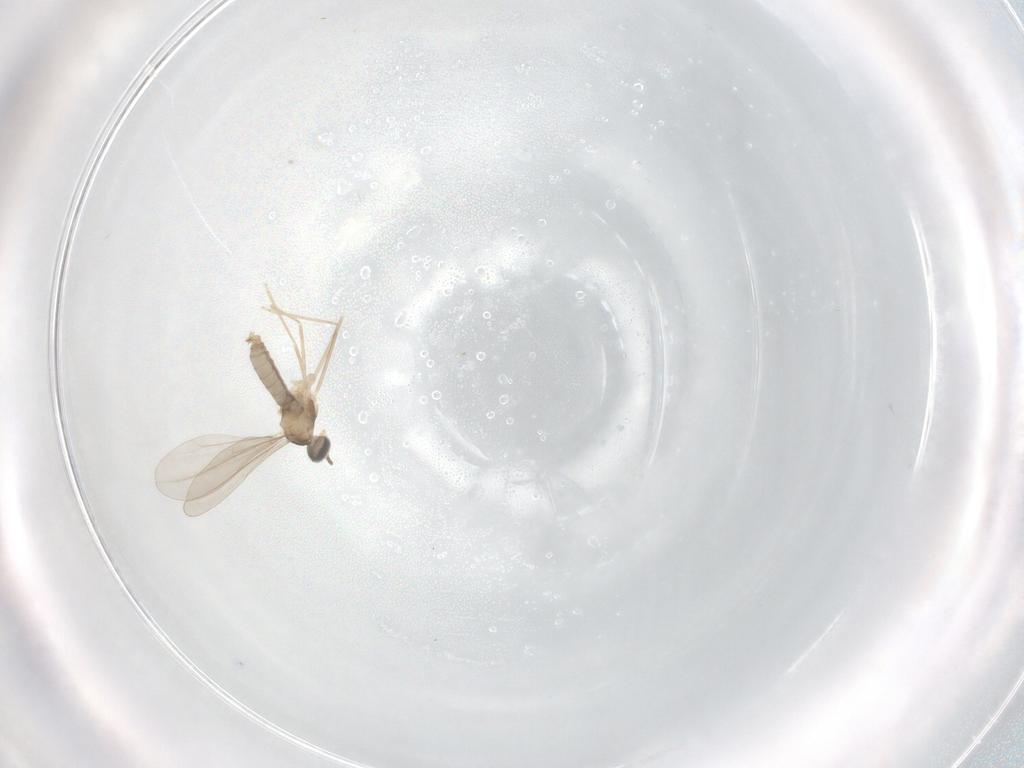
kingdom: Animalia
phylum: Arthropoda
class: Insecta
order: Diptera
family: Cecidomyiidae
